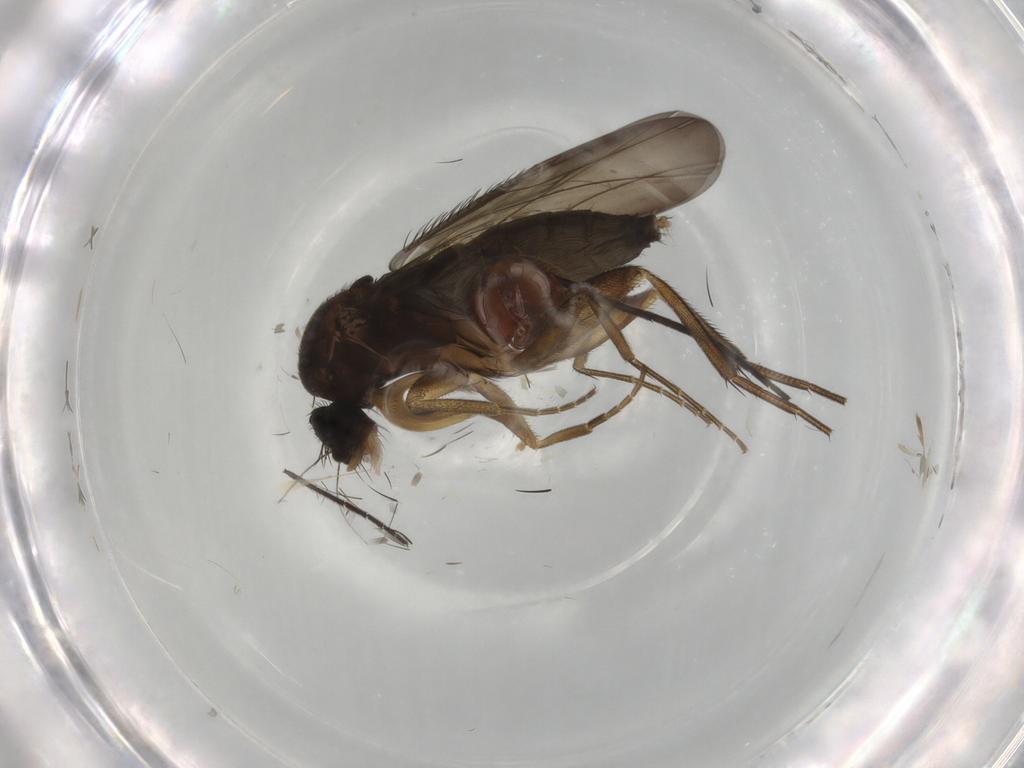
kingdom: Animalia
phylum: Arthropoda
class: Insecta
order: Diptera
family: Phoridae
